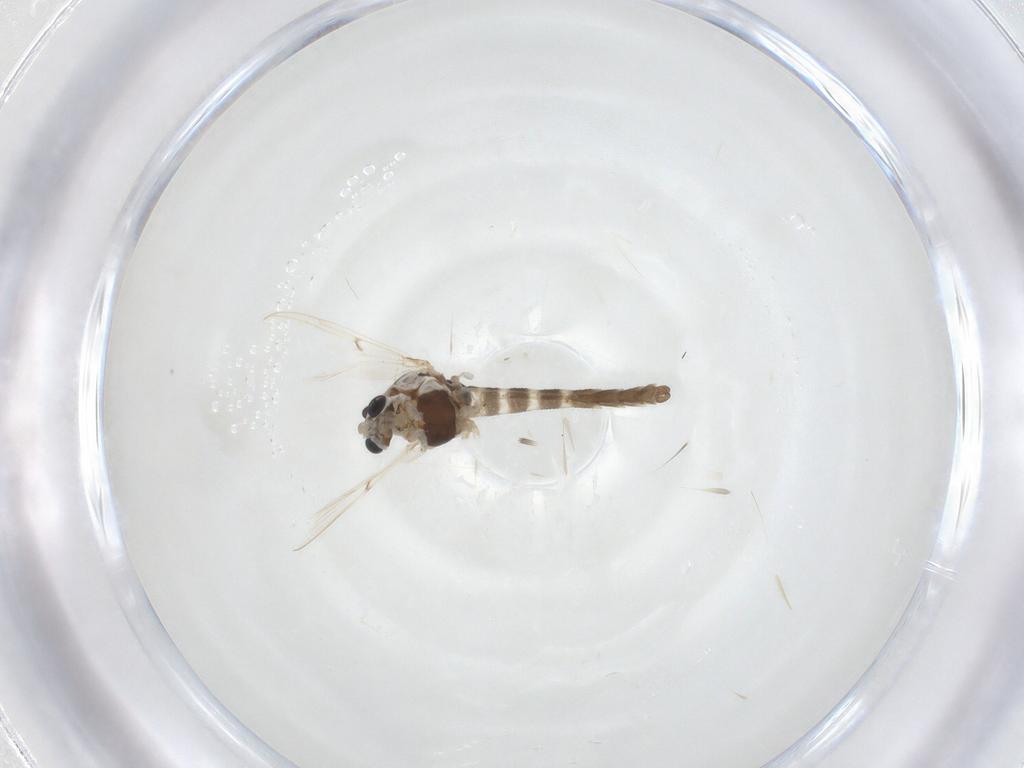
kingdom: Animalia
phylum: Arthropoda
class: Insecta
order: Diptera
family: Chironomidae
